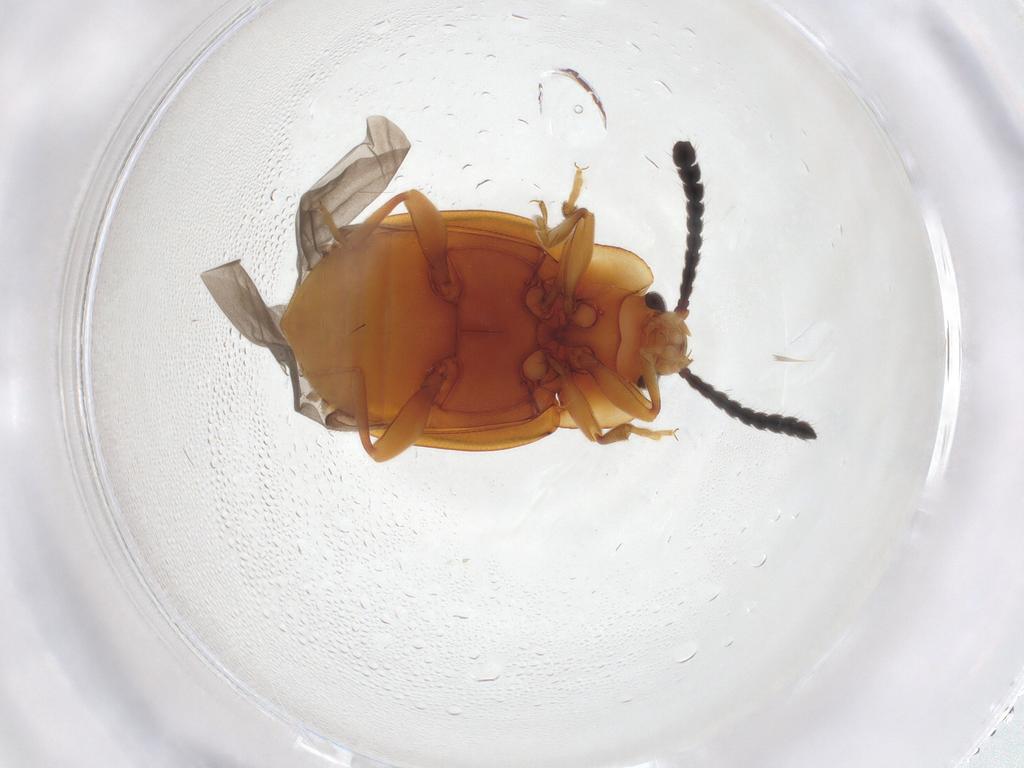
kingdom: Animalia
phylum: Arthropoda
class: Insecta
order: Coleoptera
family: Endomychidae
